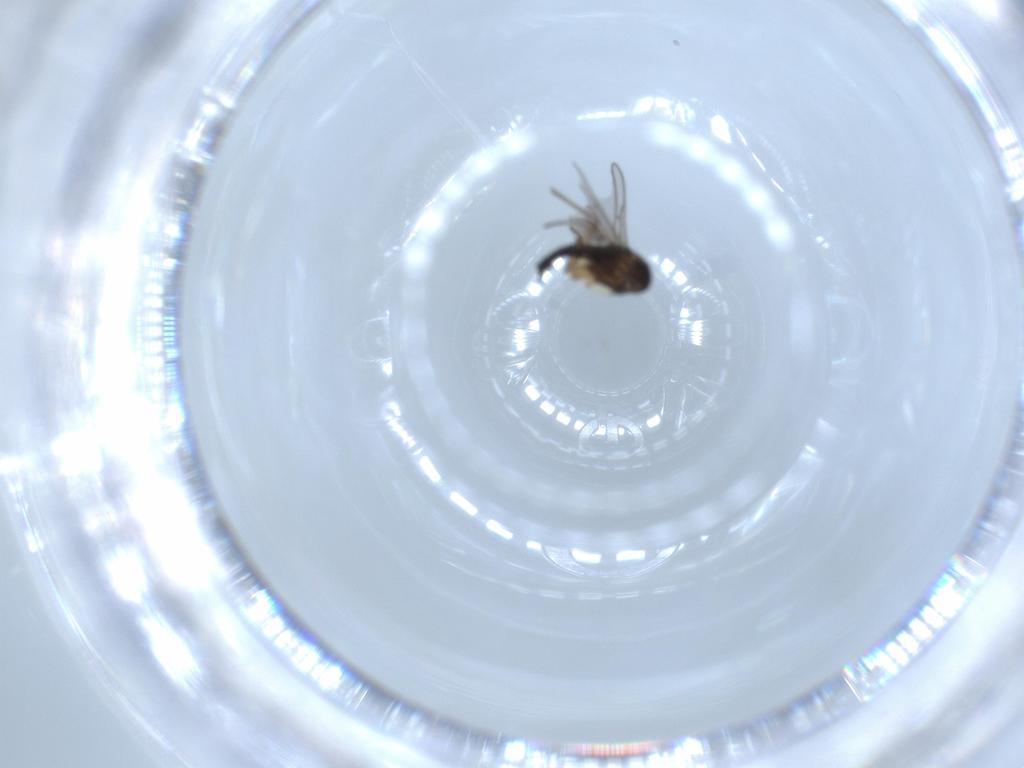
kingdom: Animalia
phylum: Arthropoda
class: Insecta
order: Diptera
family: Sciaridae
